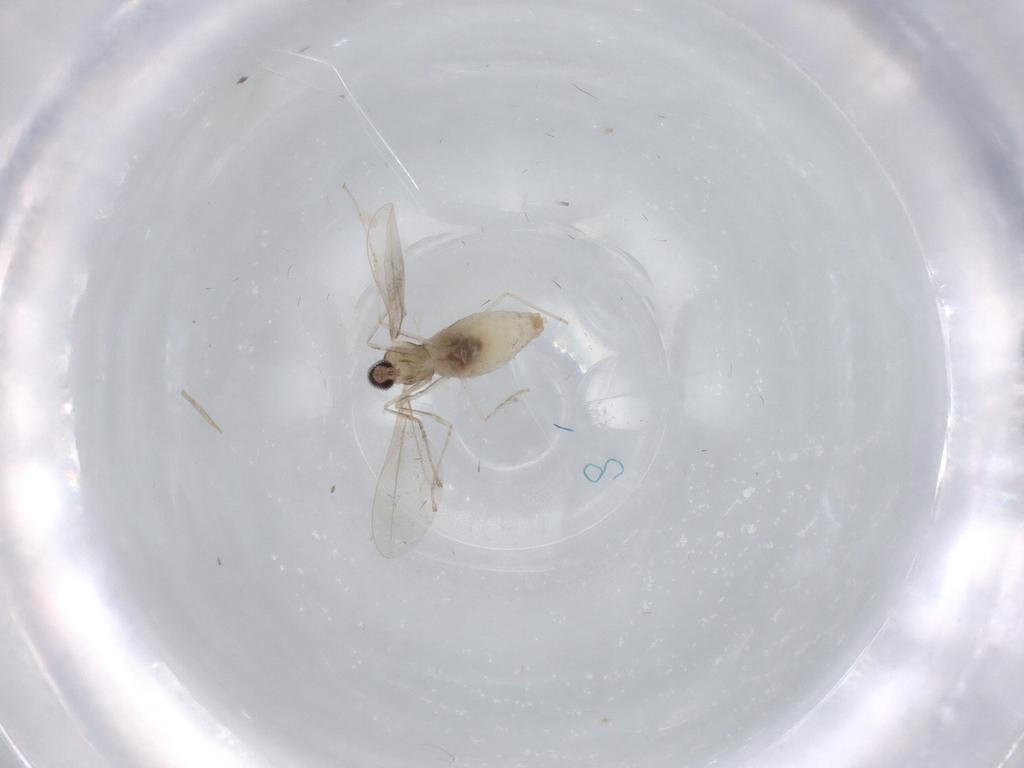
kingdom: Animalia
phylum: Arthropoda
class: Insecta
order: Diptera
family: Cecidomyiidae
